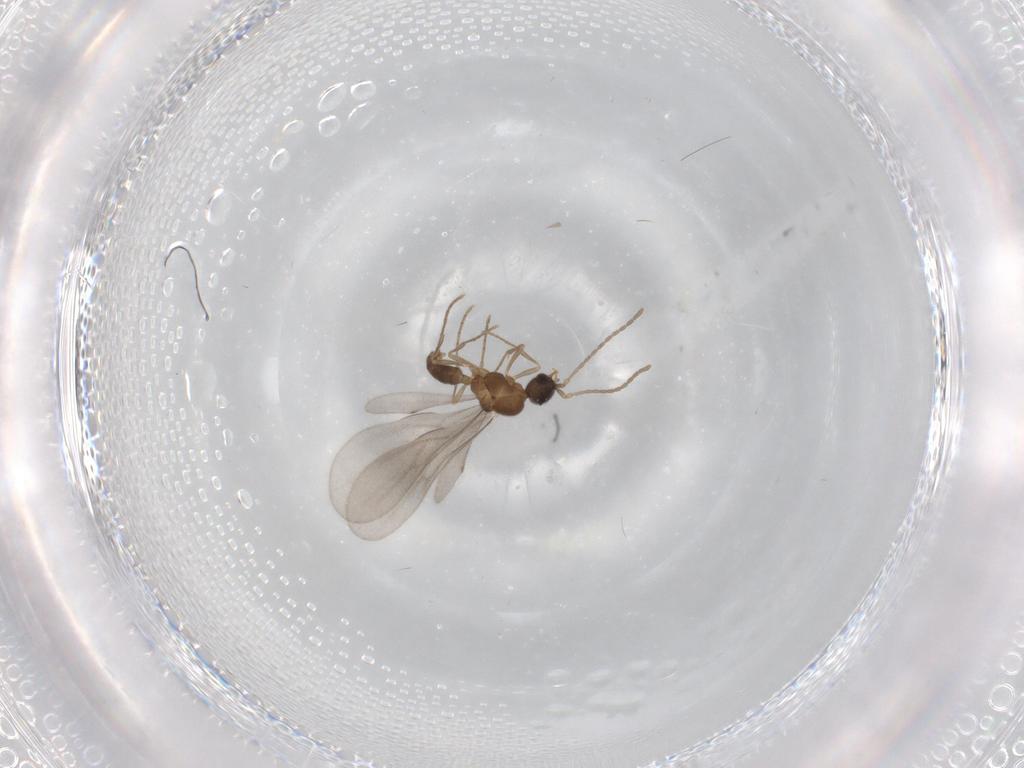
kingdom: Animalia
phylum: Arthropoda
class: Insecta
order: Hymenoptera
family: Formicidae
